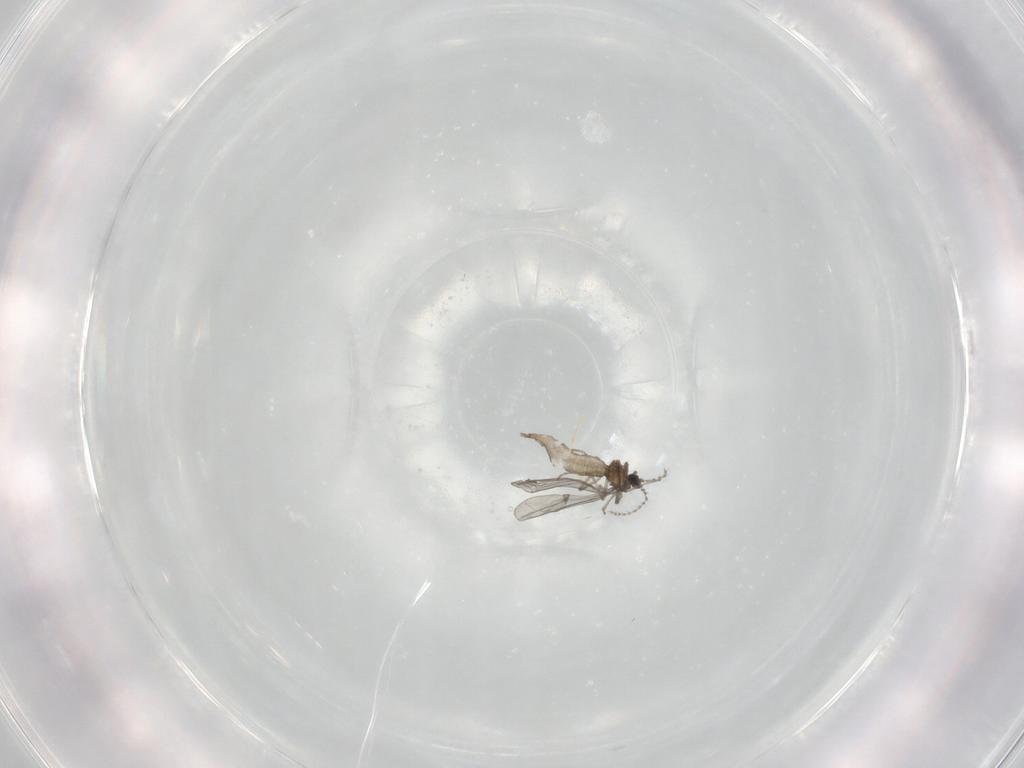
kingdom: Animalia
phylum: Arthropoda
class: Insecta
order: Diptera
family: Cecidomyiidae
